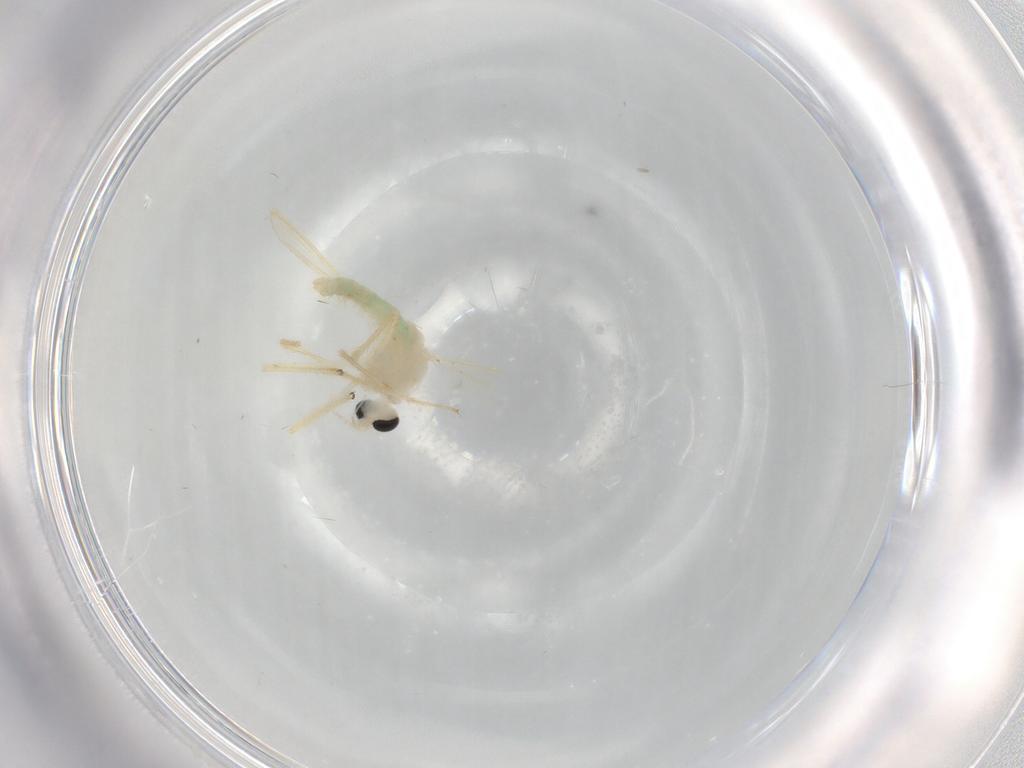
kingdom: Animalia
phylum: Arthropoda
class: Insecta
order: Diptera
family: Chironomidae
